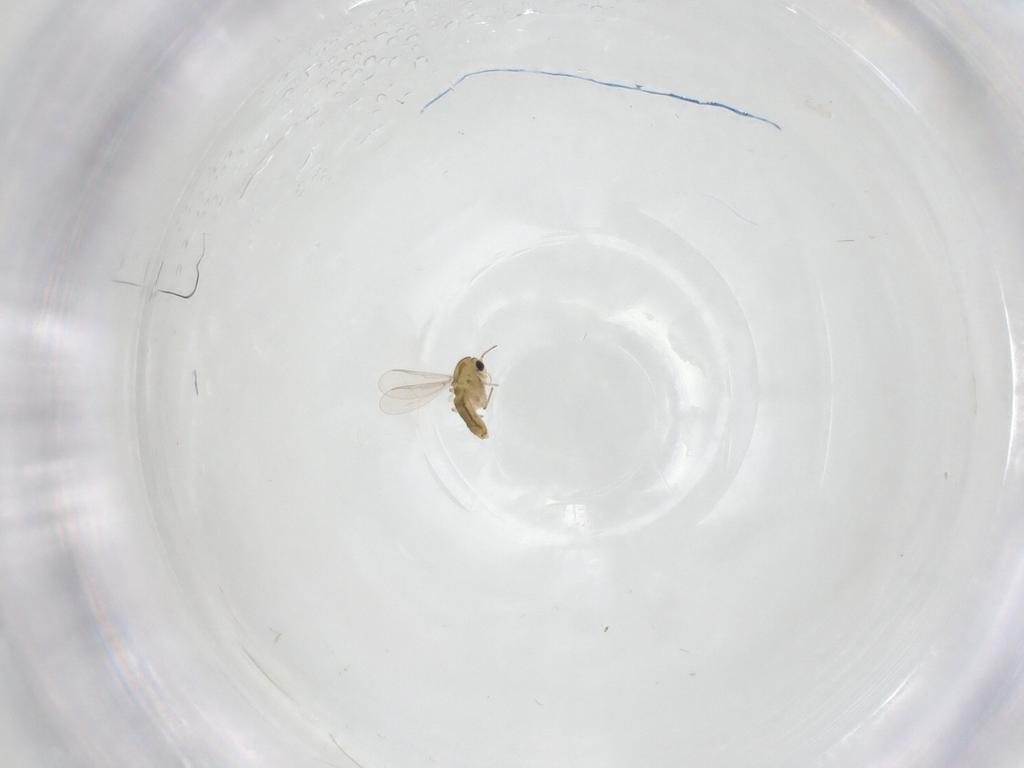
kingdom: Animalia
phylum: Arthropoda
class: Insecta
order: Diptera
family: Chironomidae
